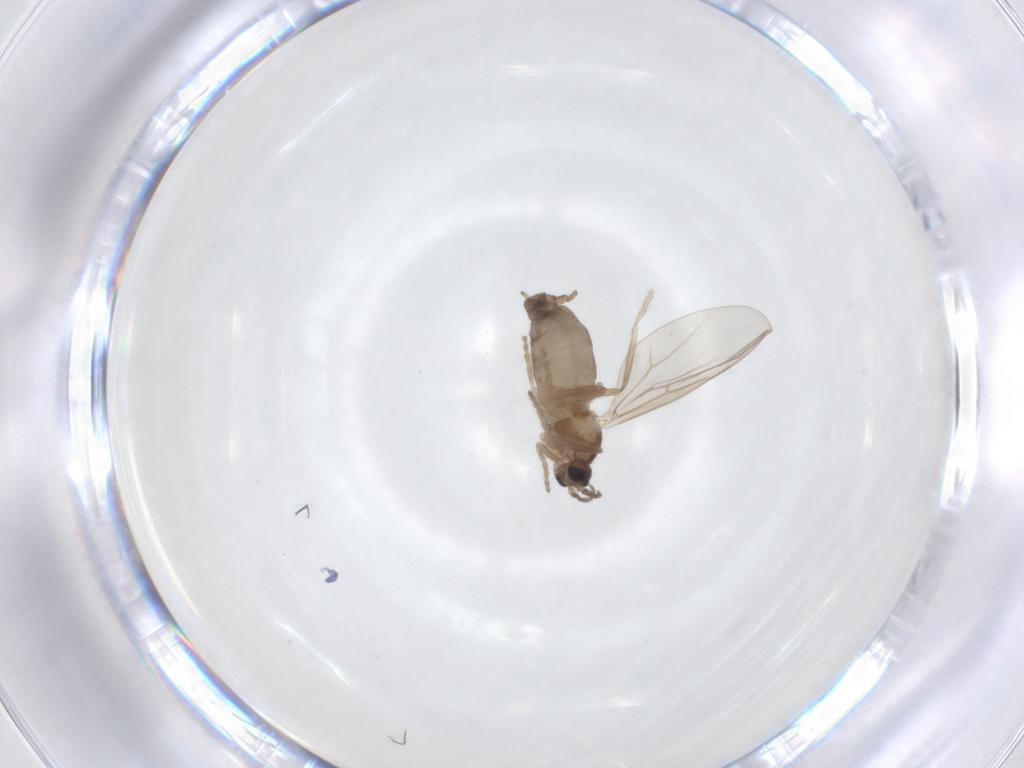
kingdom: Animalia
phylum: Arthropoda
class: Insecta
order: Diptera
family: Cecidomyiidae
